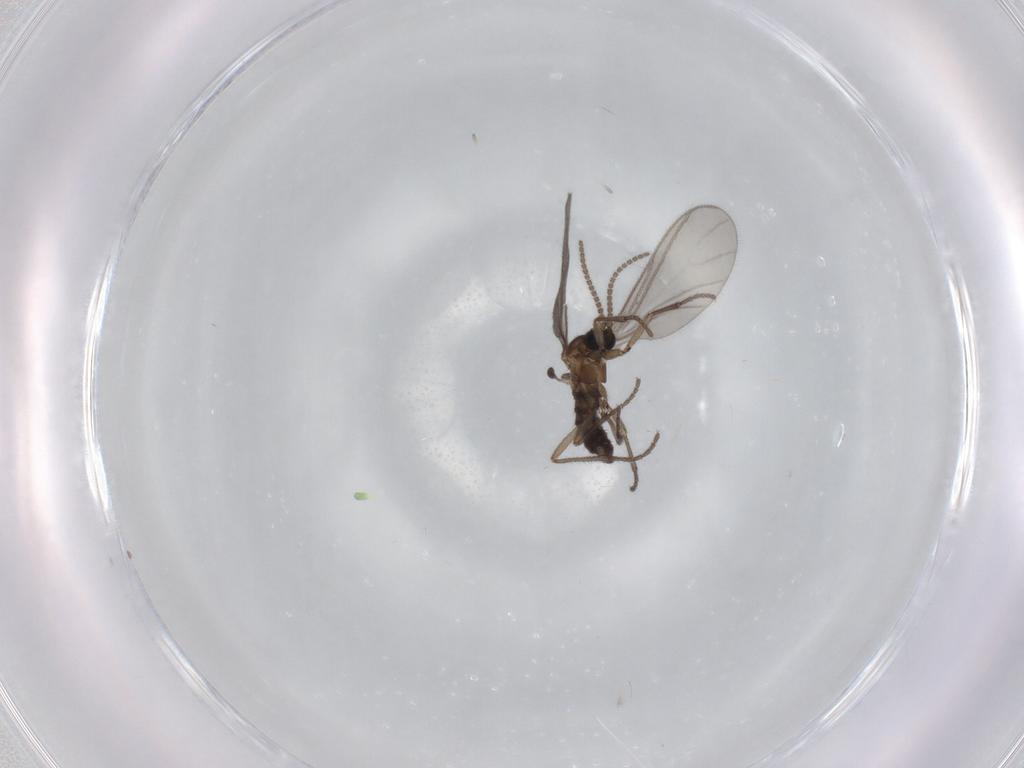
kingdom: Animalia
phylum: Arthropoda
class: Insecta
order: Diptera
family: Sciaridae
